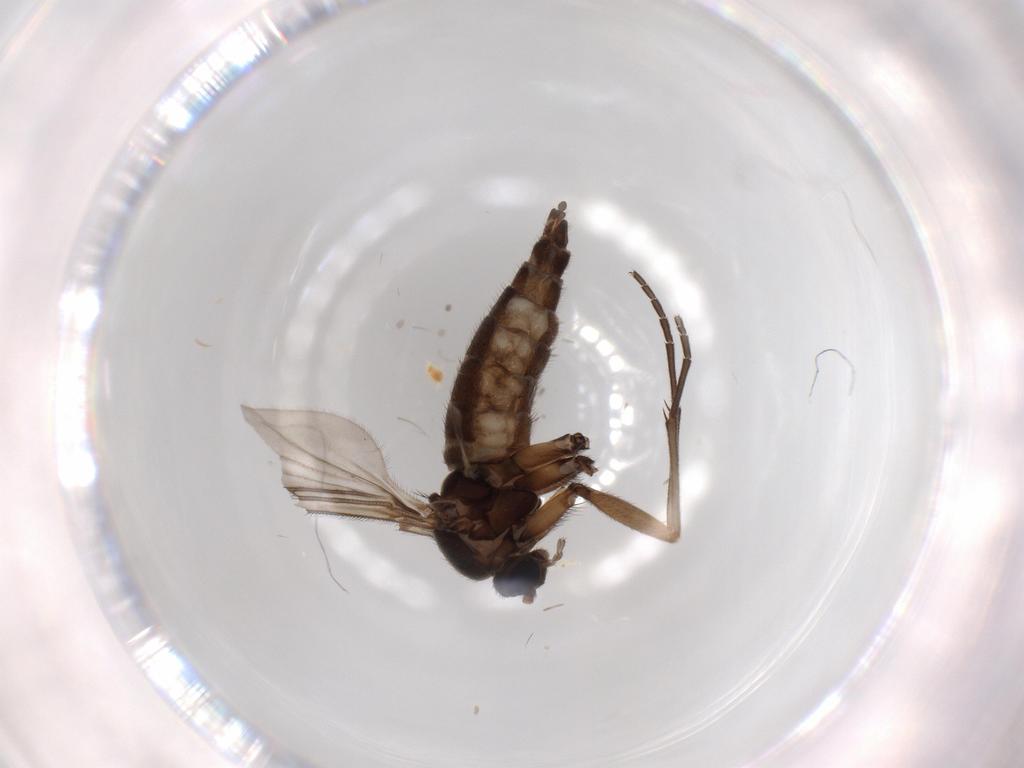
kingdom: Animalia
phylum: Arthropoda
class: Insecta
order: Diptera
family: Sciaridae
